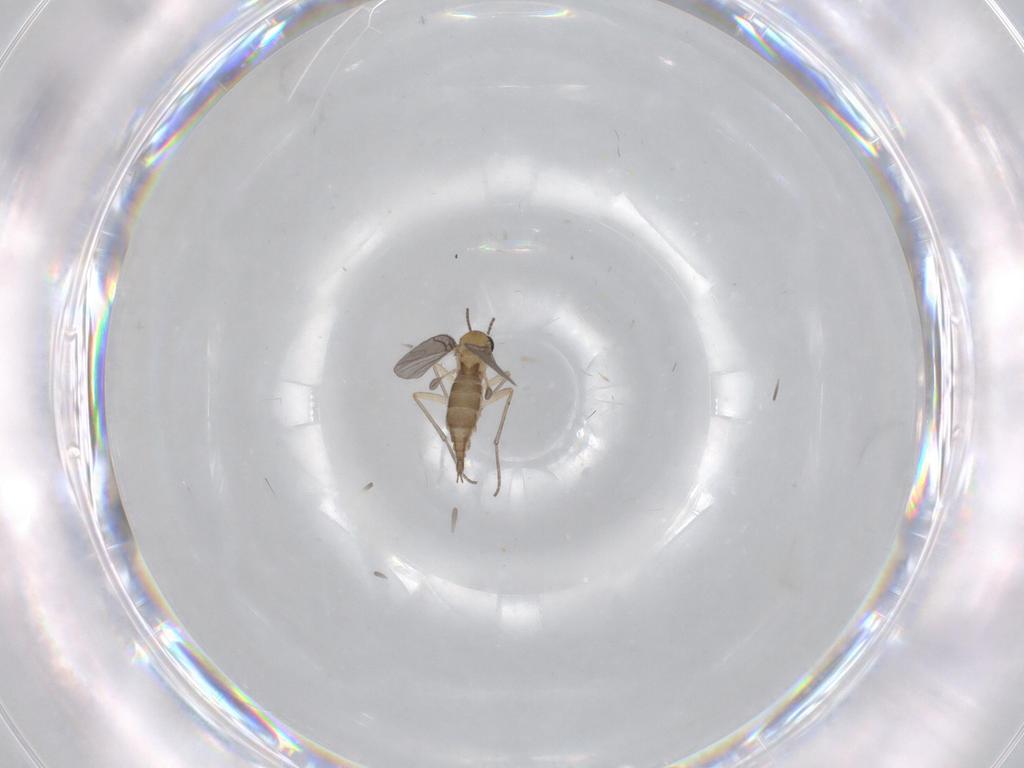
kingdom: Animalia
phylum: Arthropoda
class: Insecta
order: Diptera
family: Sciaridae
